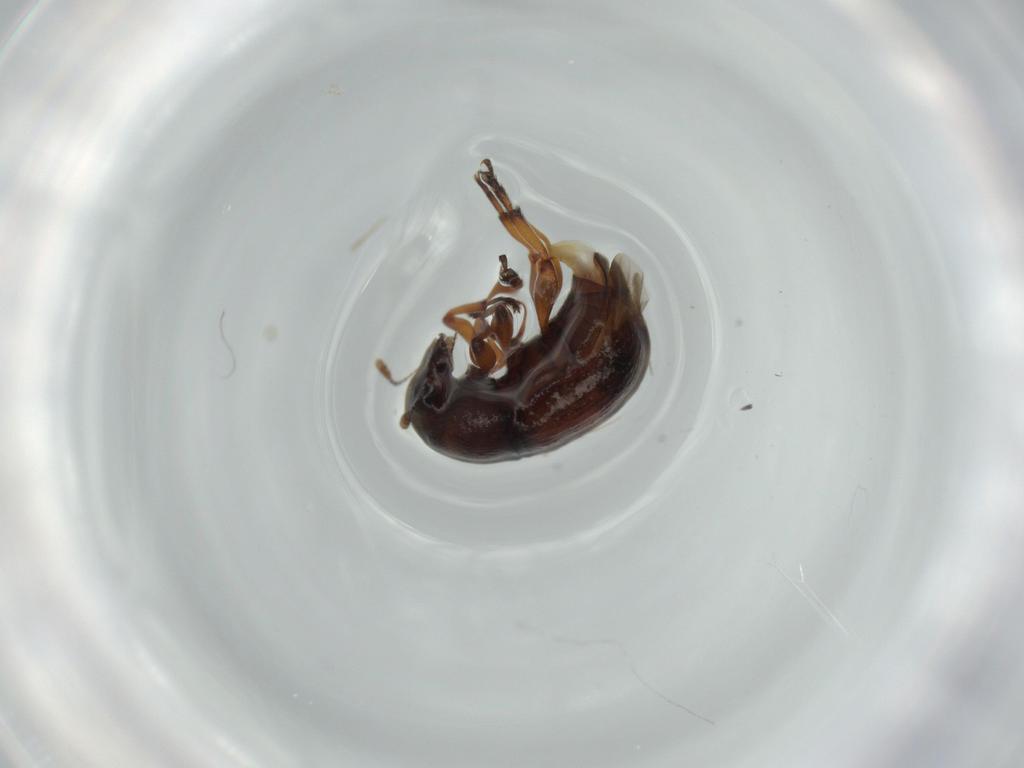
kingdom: Animalia
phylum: Arthropoda
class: Insecta
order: Coleoptera
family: Anthribidae
